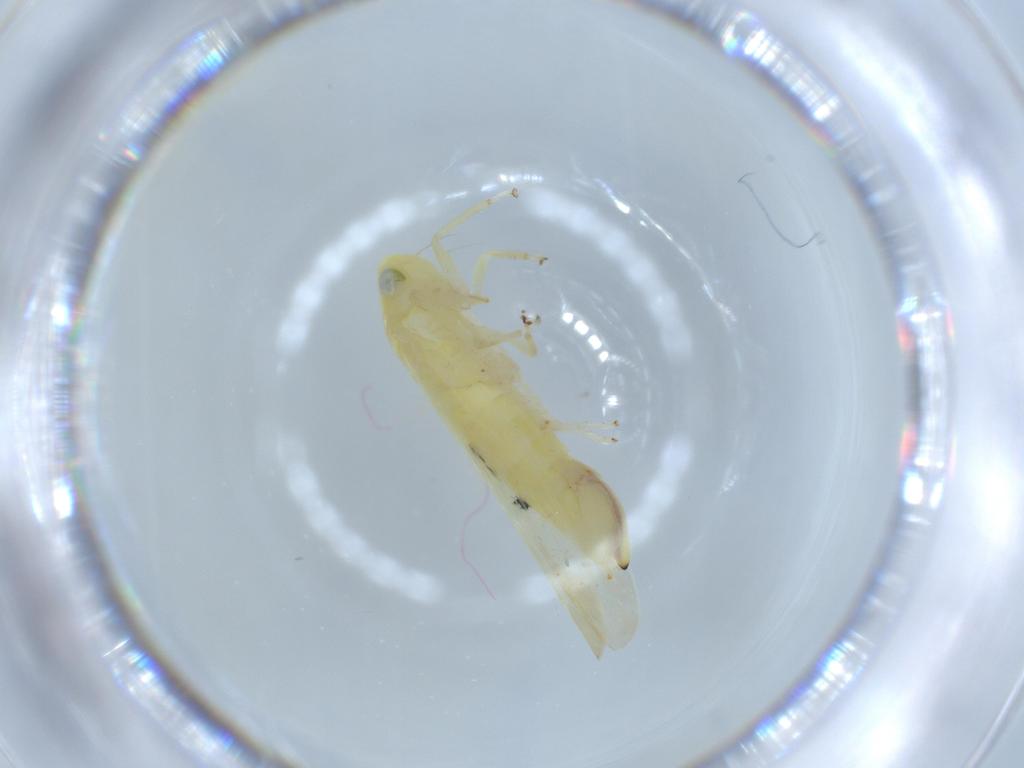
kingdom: Animalia
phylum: Arthropoda
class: Insecta
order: Hemiptera
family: Cicadellidae
